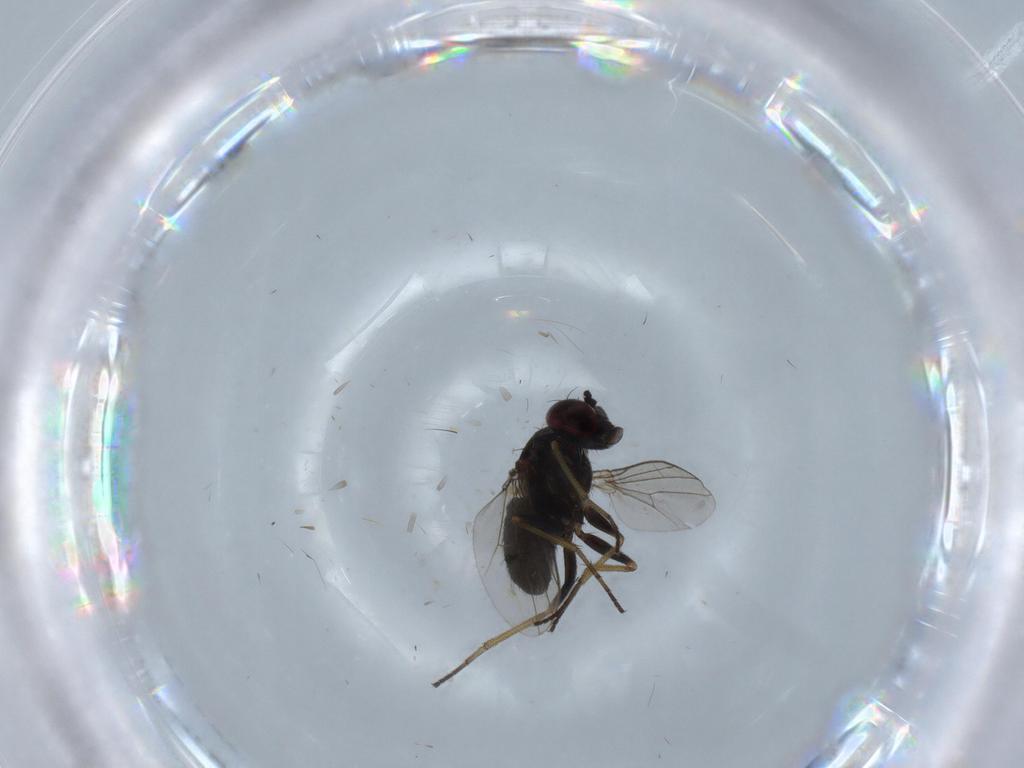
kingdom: Animalia
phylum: Arthropoda
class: Insecta
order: Diptera
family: Dolichopodidae
